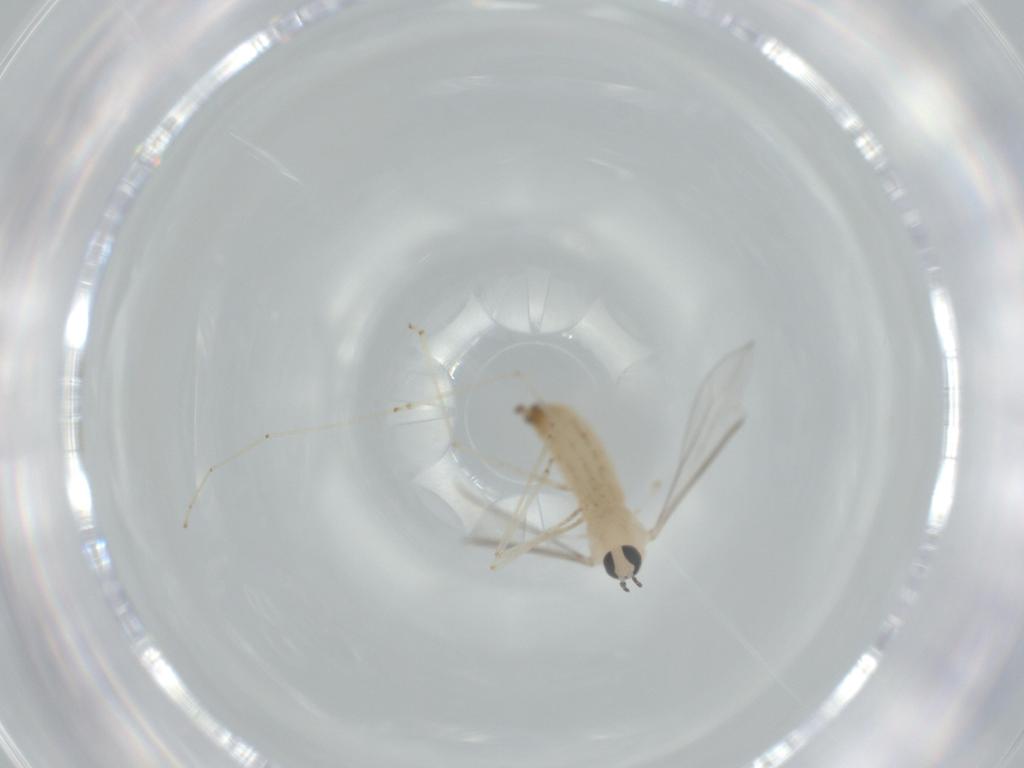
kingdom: Animalia
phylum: Arthropoda
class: Insecta
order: Diptera
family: Cecidomyiidae
